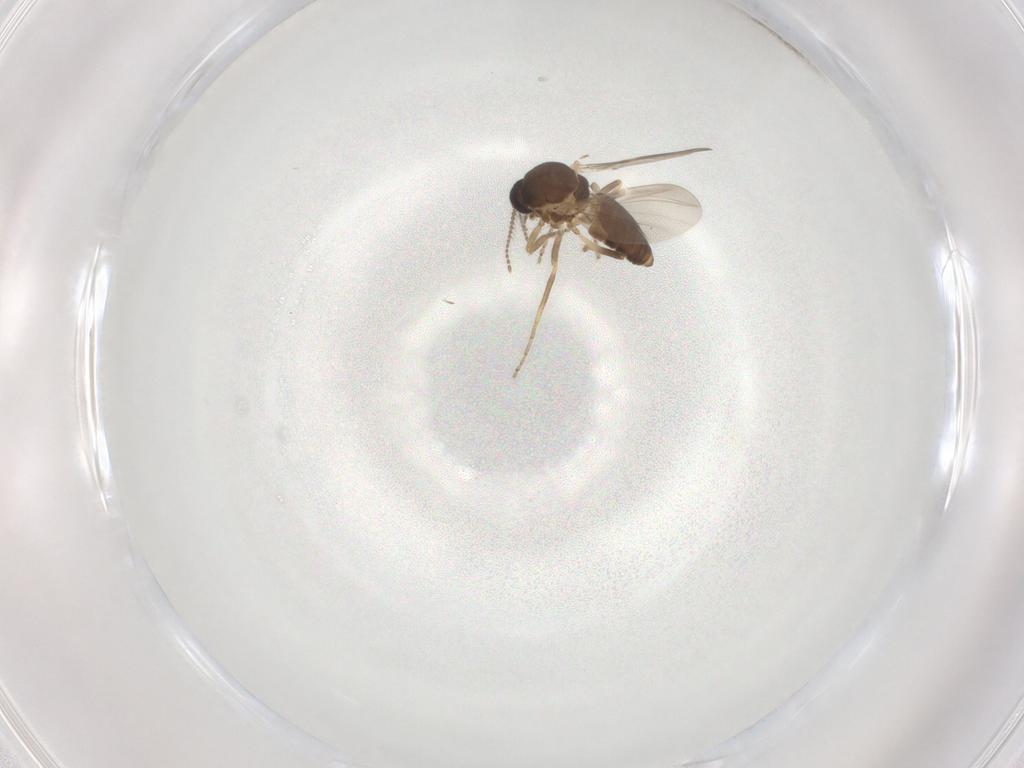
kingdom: Animalia
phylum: Arthropoda
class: Insecta
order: Diptera
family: Ceratopogonidae
